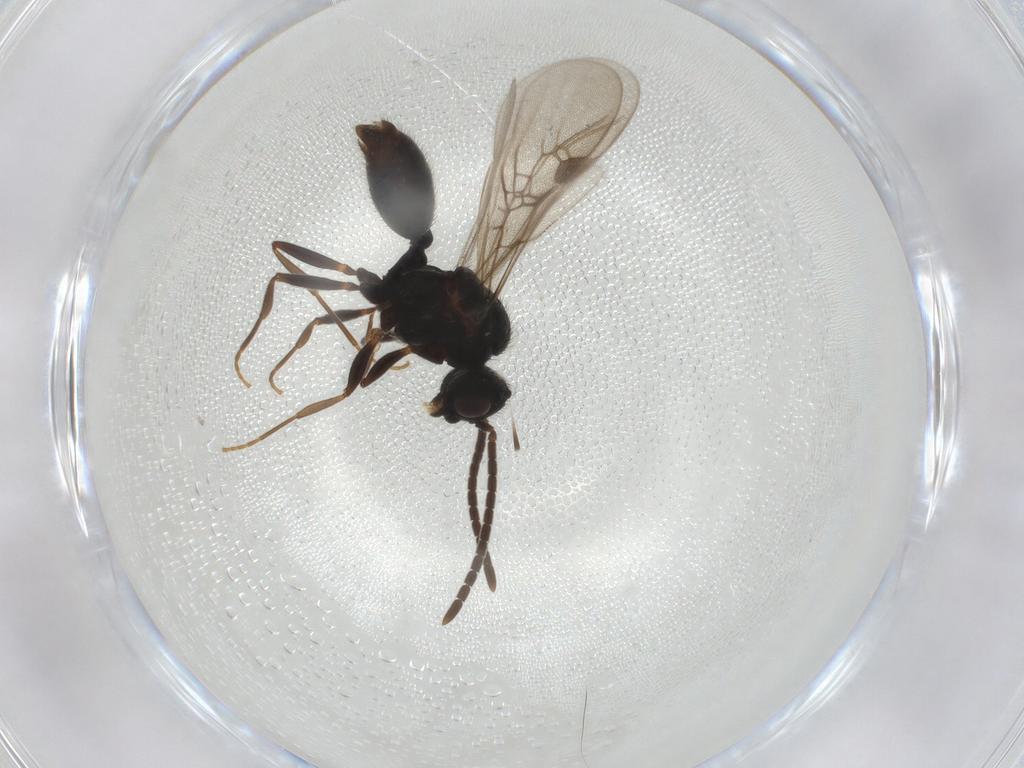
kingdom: Animalia
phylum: Arthropoda
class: Insecta
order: Hymenoptera
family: Formicidae
